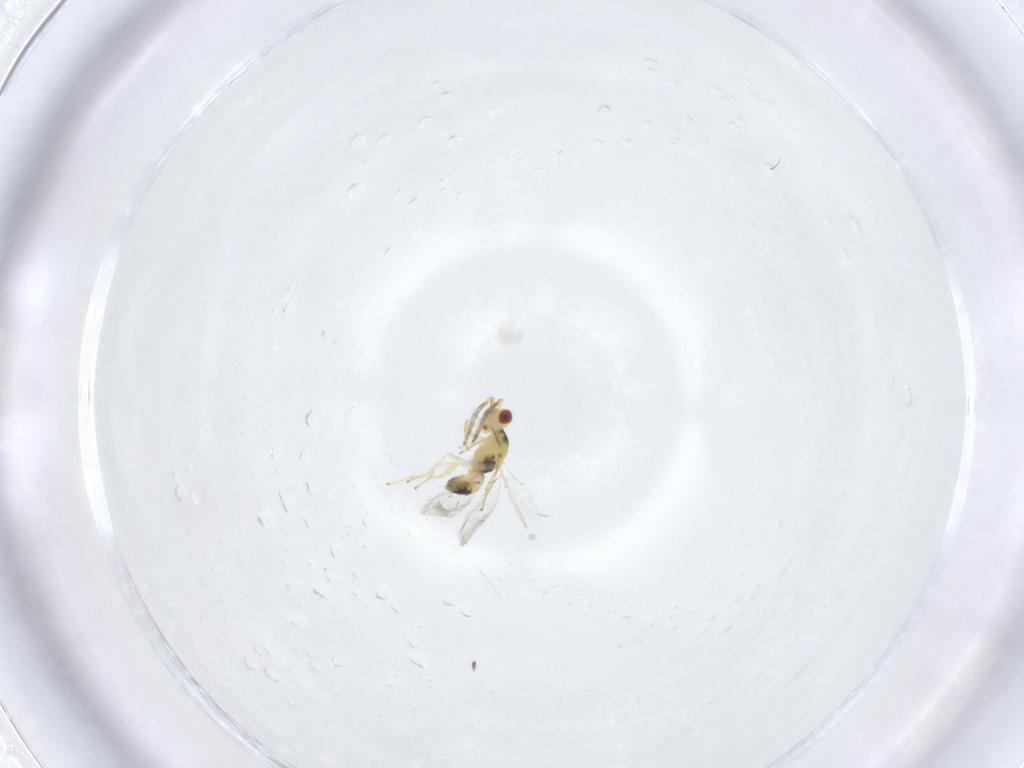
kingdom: Animalia
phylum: Arthropoda
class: Insecta
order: Hymenoptera
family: Eulophidae
